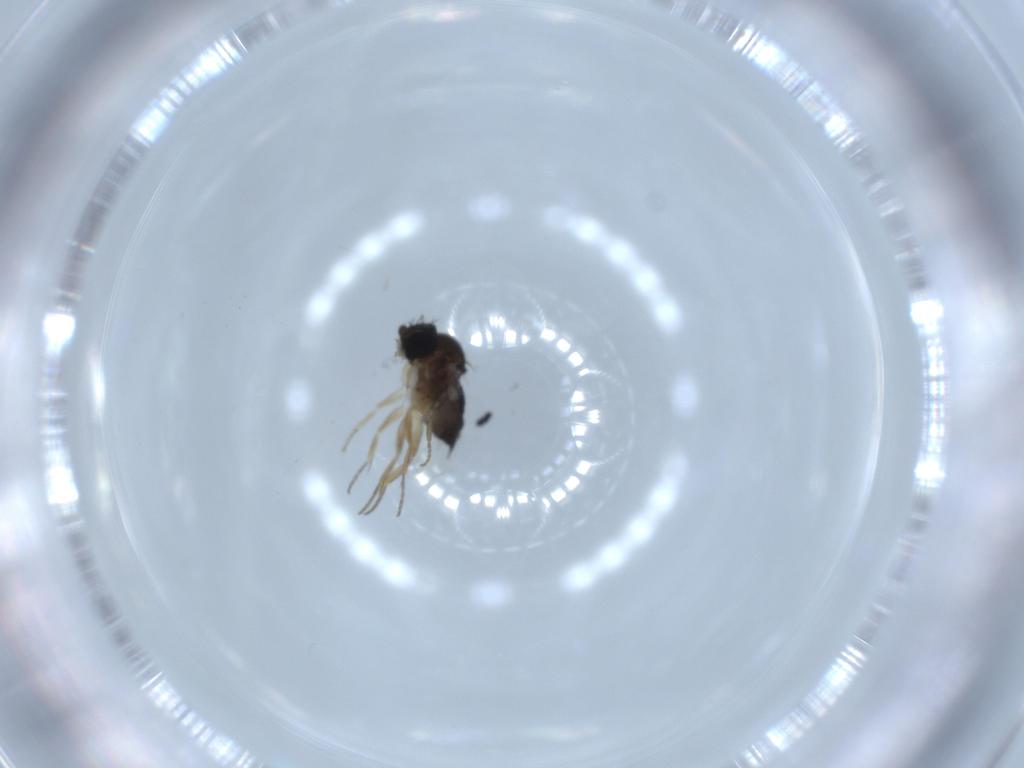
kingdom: Animalia
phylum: Arthropoda
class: Insecta
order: Diptera
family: Phoridae
